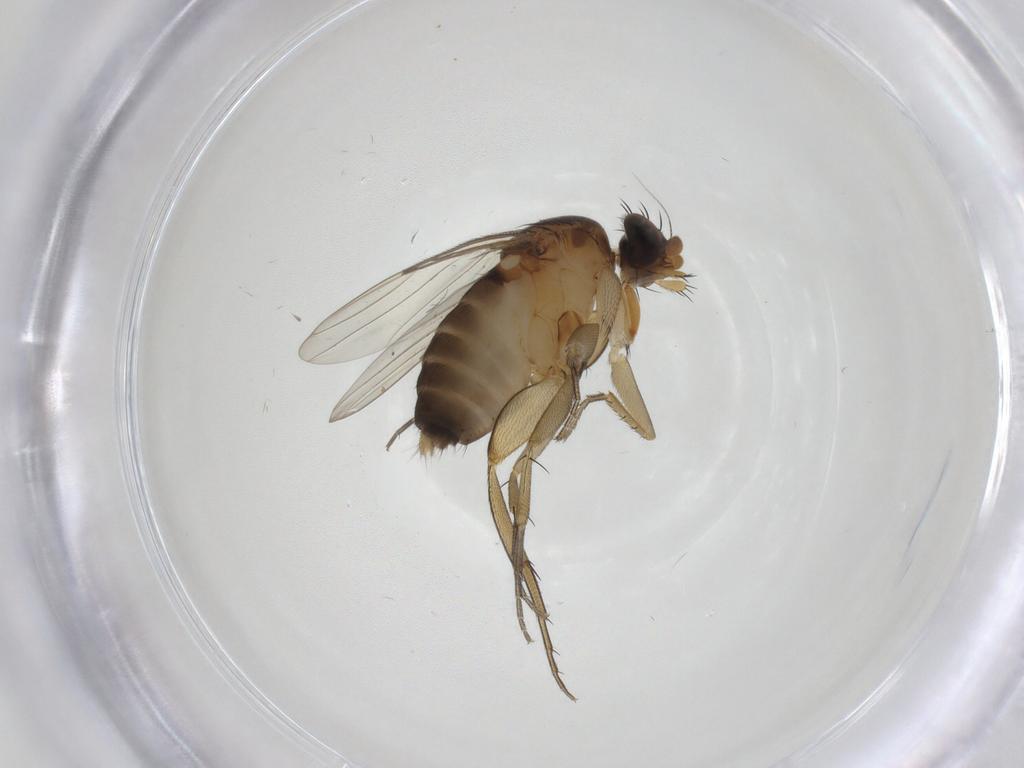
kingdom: Animalia
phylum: Arthropoda
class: Insecta
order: Diptera
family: Phoridae
